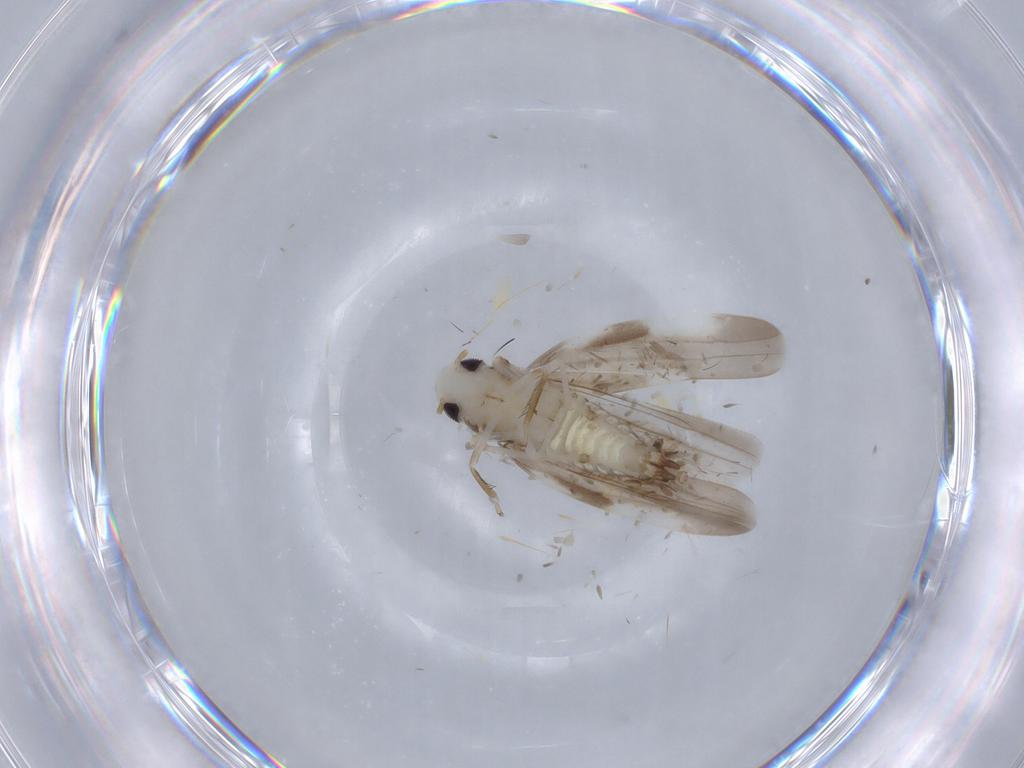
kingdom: Animalia
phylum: Arthropoda
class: Insecta
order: Hemiptera
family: Cicadellidae
